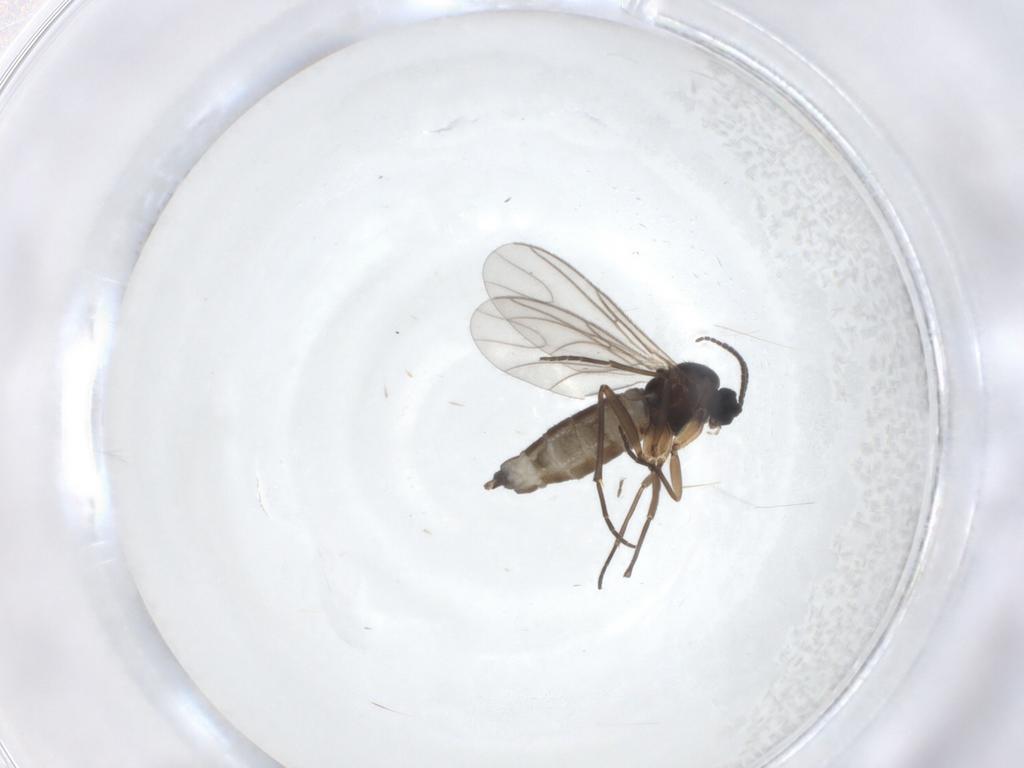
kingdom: Animalia
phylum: Arthropoda
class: Insecta
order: Diptera
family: Sciaridae
